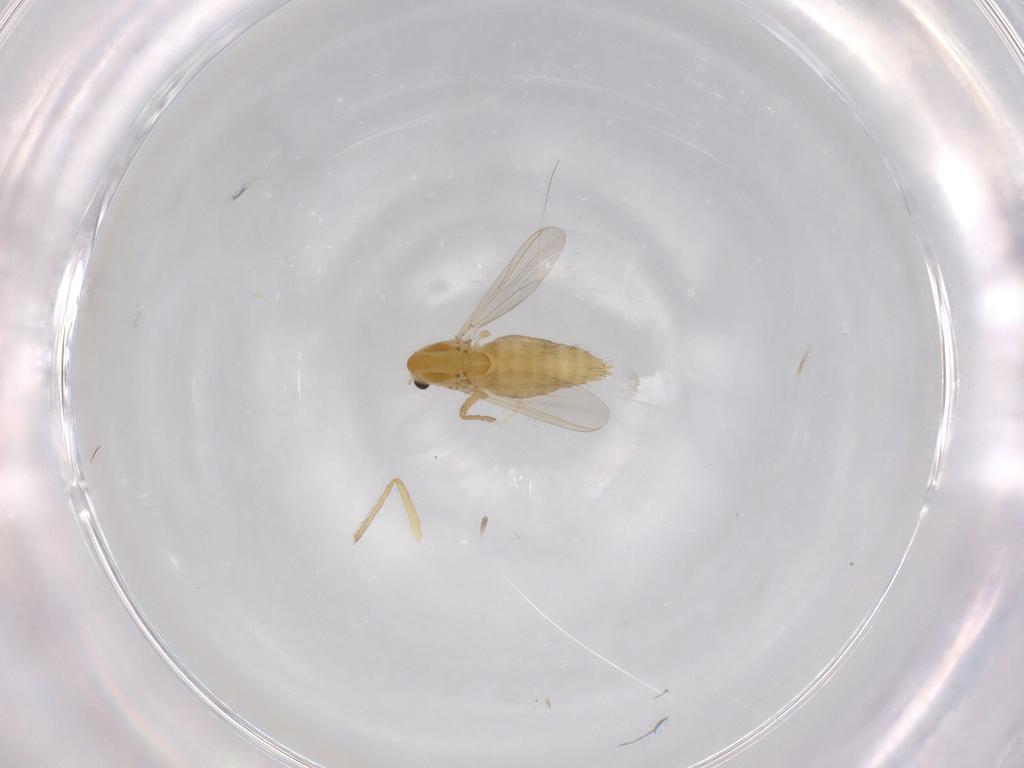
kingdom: Animalia
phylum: Arthropoda
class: Insecta
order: Diptera
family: Chironomidae
